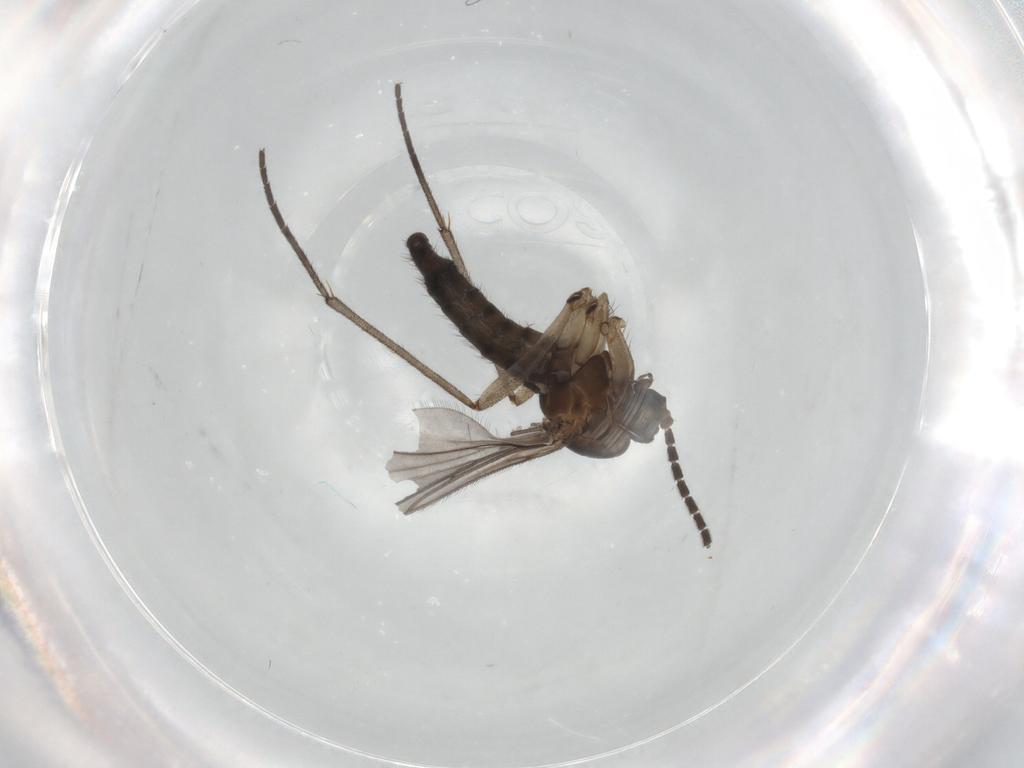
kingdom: Animalia
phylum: Arthropoda
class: Insecta
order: Diptera
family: Sciaridae
